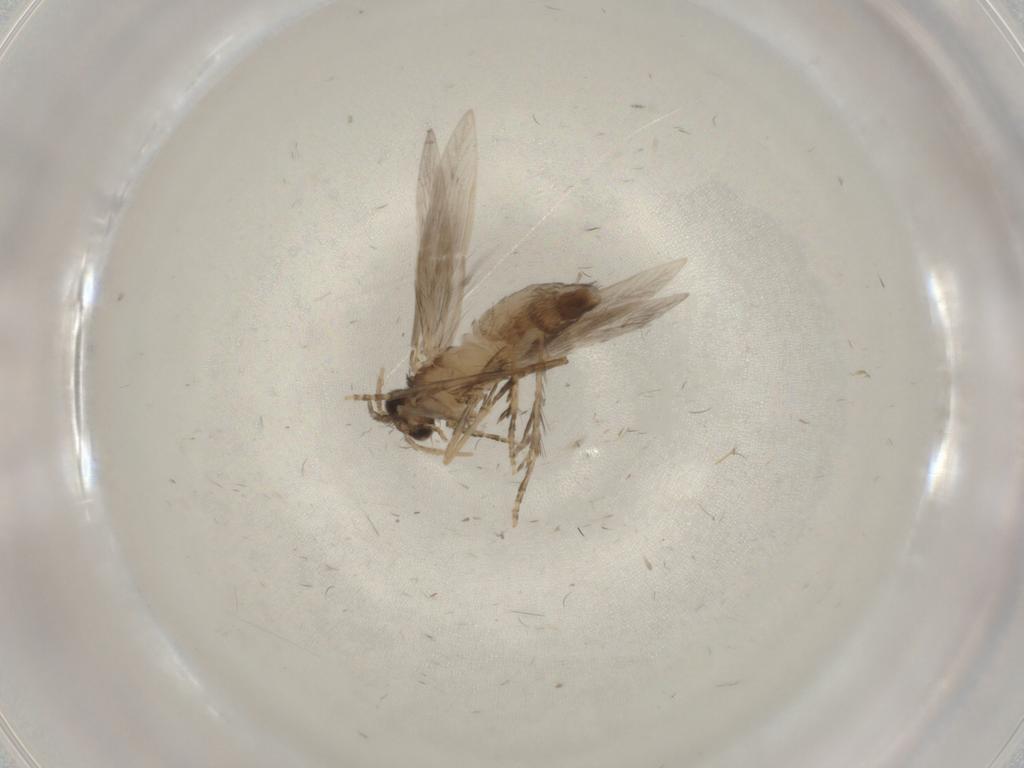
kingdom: Animalia
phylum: Arthropoda
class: Insecta
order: Trichoptera
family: Hydroptilidae
